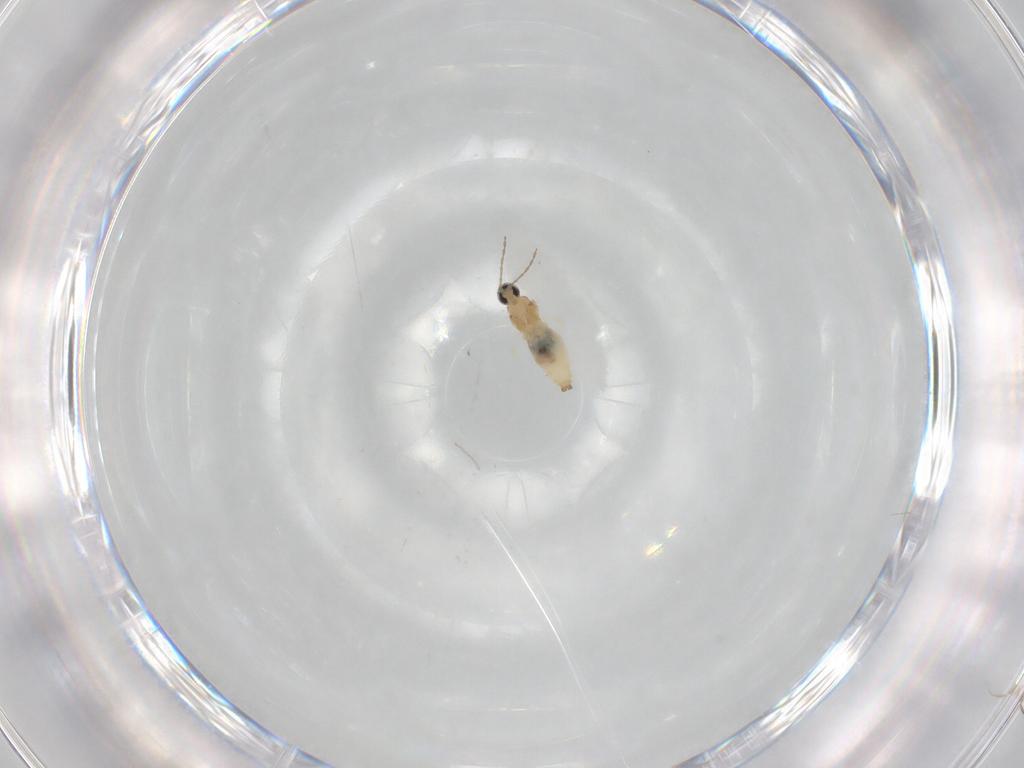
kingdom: Animalia
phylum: Arthropoda
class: Insecta
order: Diptera
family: Cecidomyiidae
